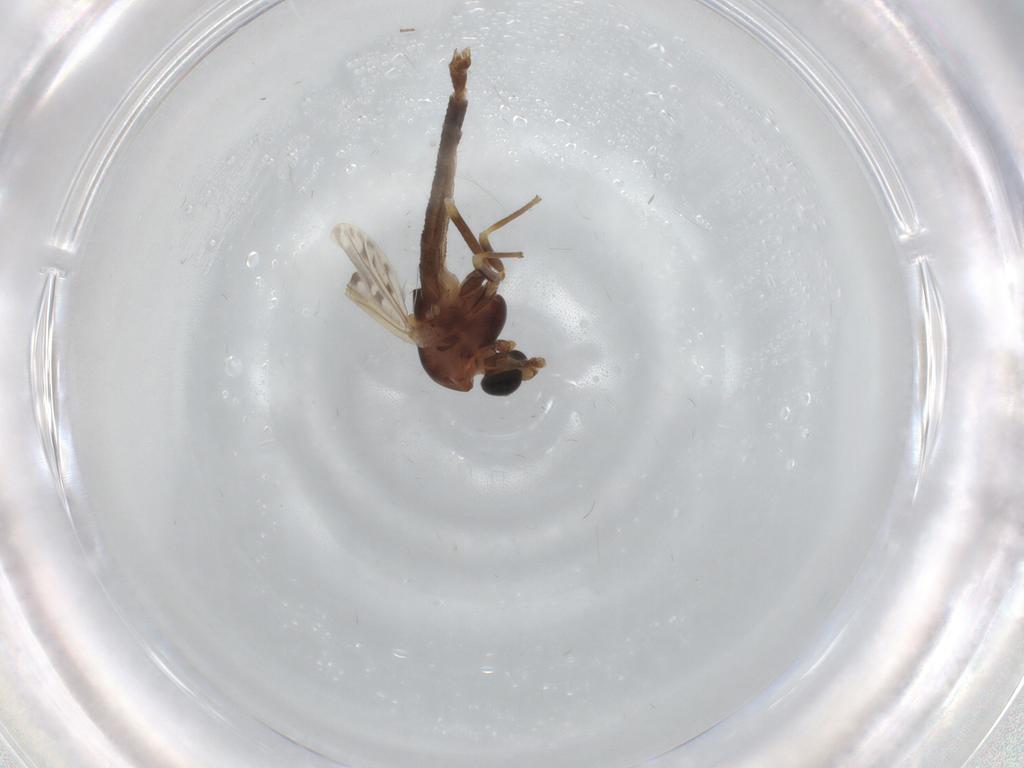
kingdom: Animalia
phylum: Arthropoda
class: Insecta
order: Diptera
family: Chironomidae
